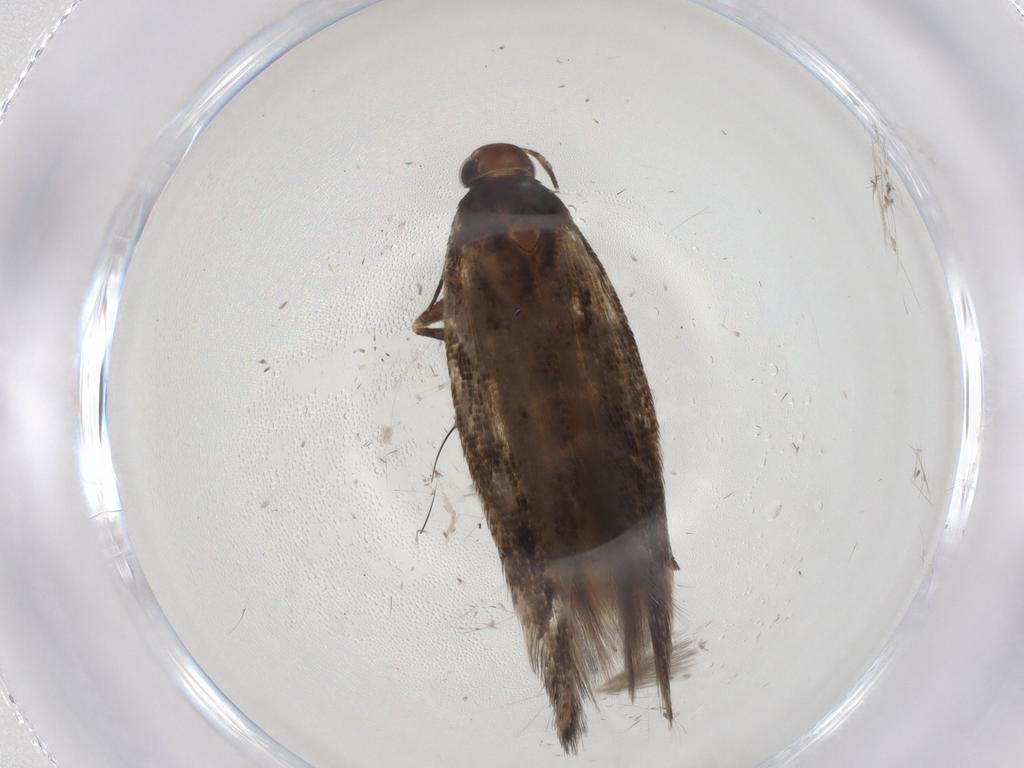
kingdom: Animalia
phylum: Arthropoda
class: Insecta
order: Lepidoptera
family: Gelechiidae
